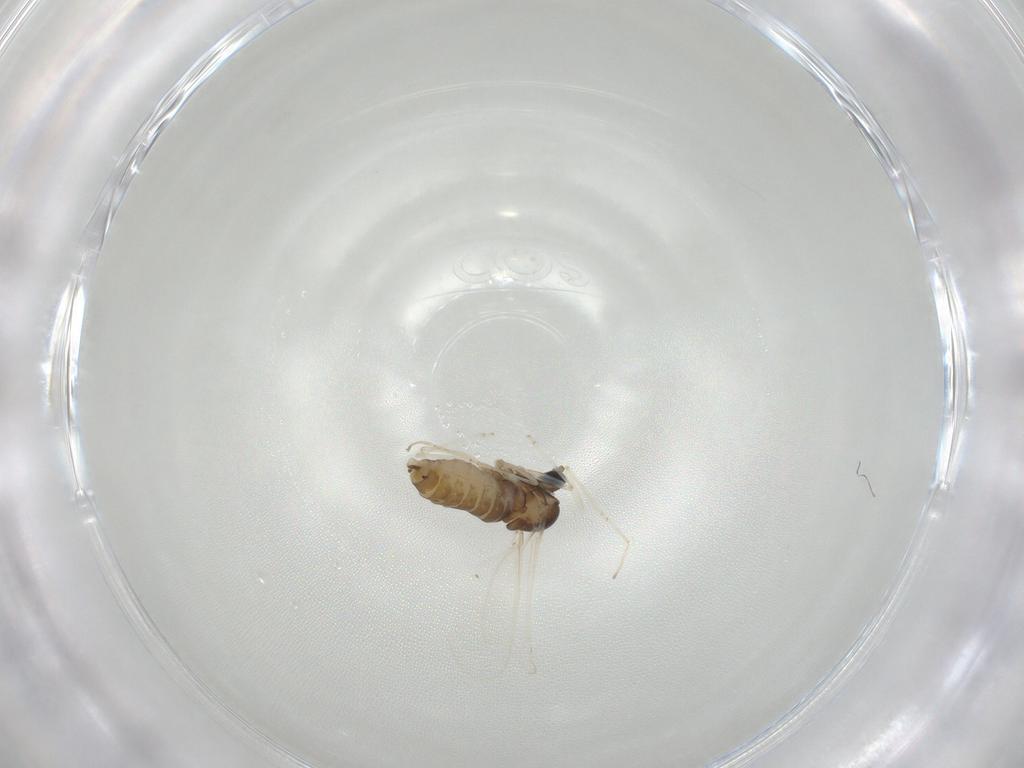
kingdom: Animalia
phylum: Arthropoda
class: Insecta
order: Diptera
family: Cecidomyiidae
